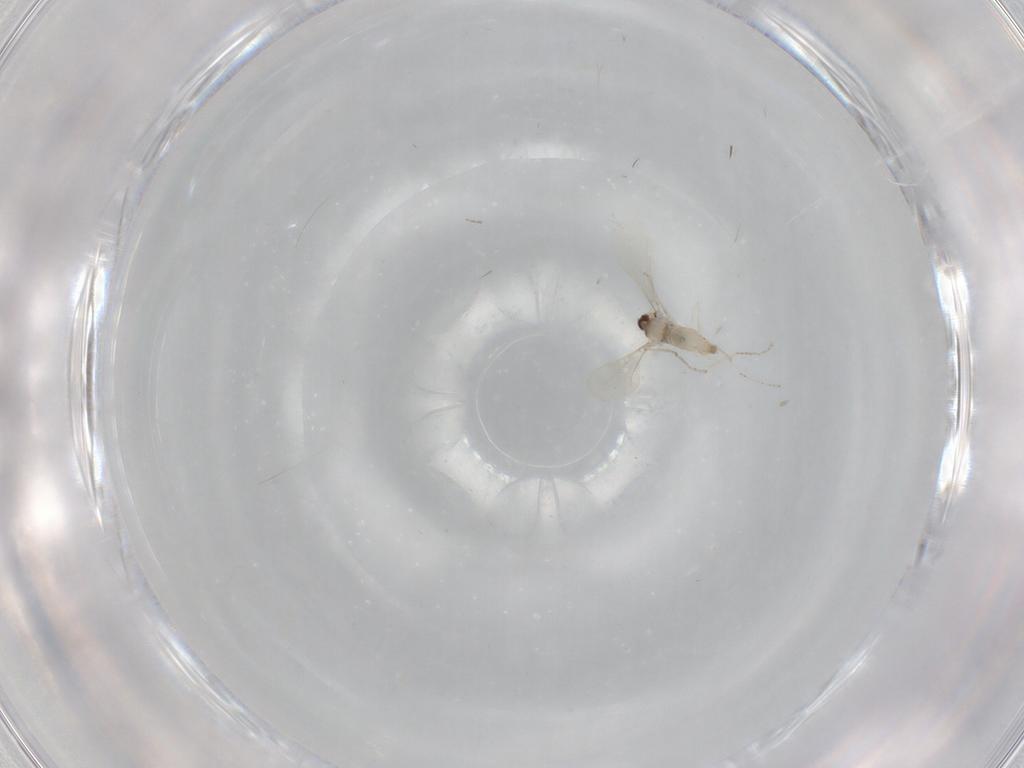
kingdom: Animalia
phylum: Arthropoda
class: Insecta
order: Diptera
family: Cecidomyiidae
